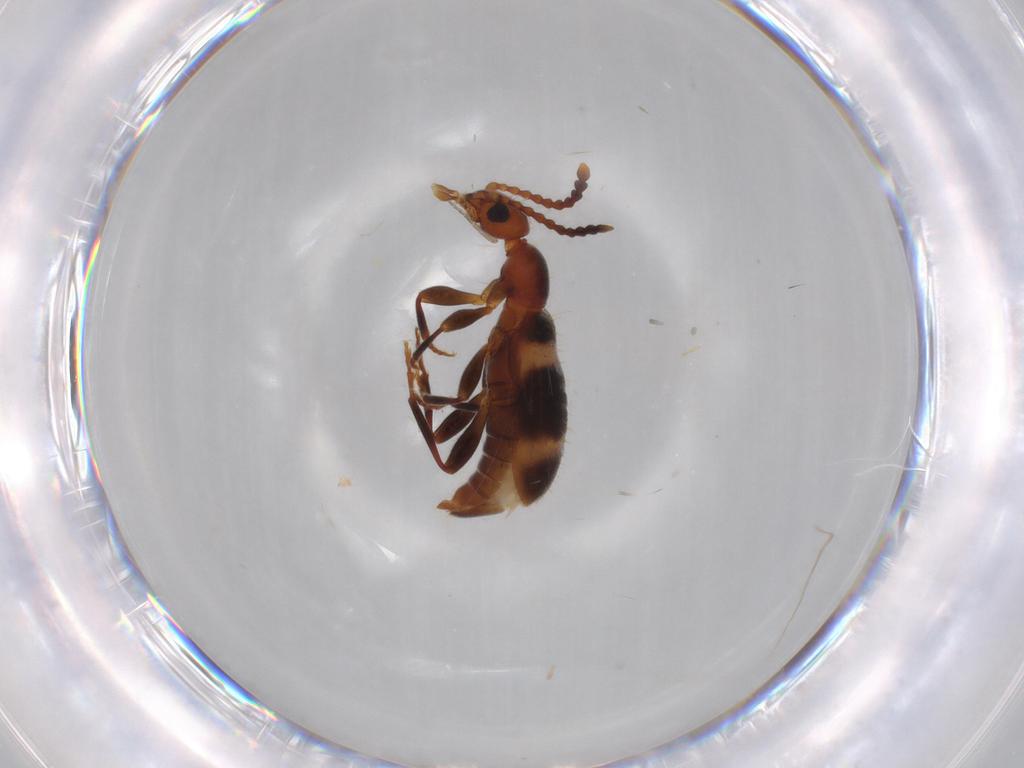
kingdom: Animalia
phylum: Arthropoda
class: Insecta
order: Coleoptera
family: Anthicidae
